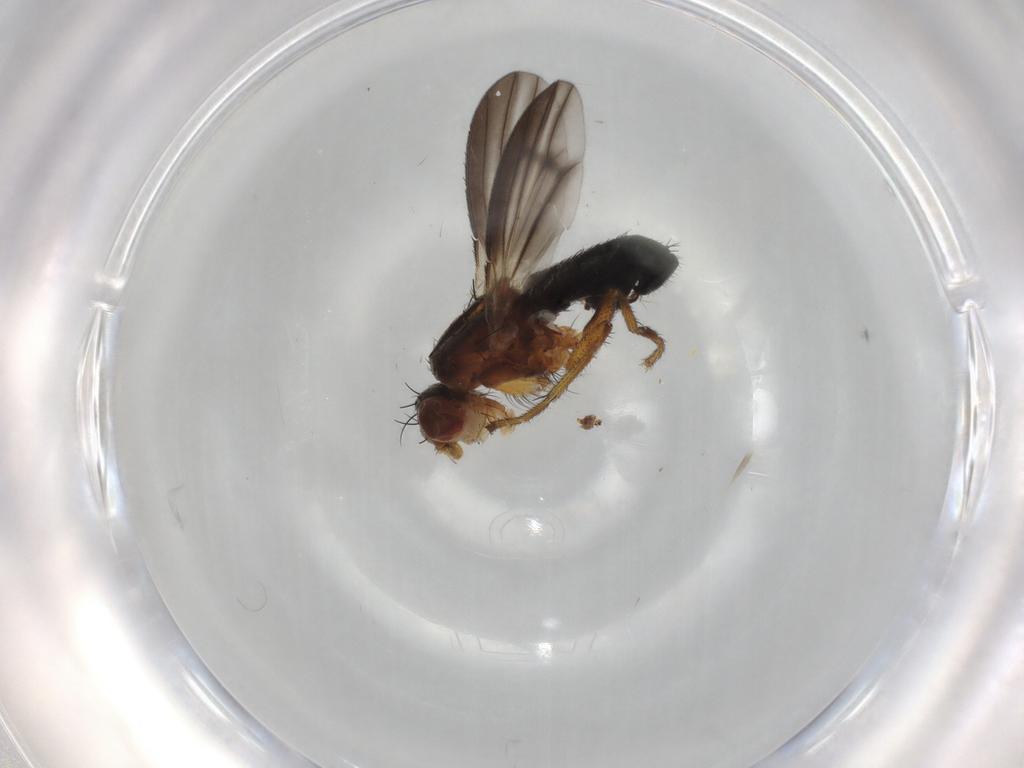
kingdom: Animalia
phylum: Arthropoda
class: Insecta
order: Diptera
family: Heleomyzidae
